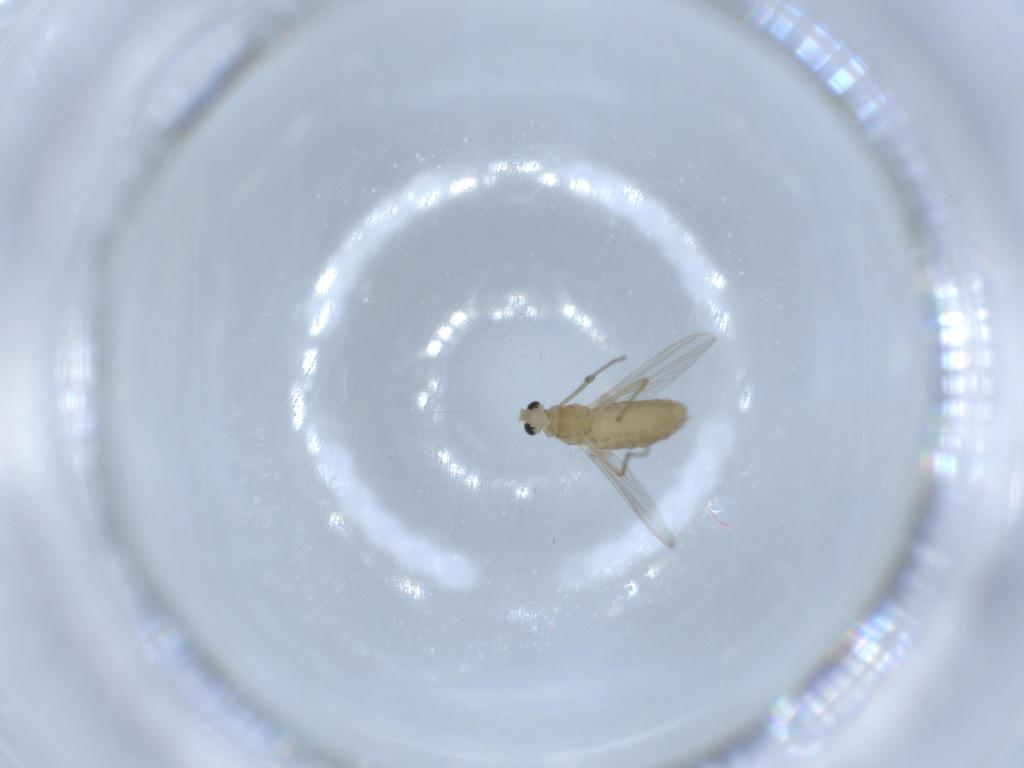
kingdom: Animalia
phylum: Arthropoda
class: Insecta
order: Diptera
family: Chironomidae
